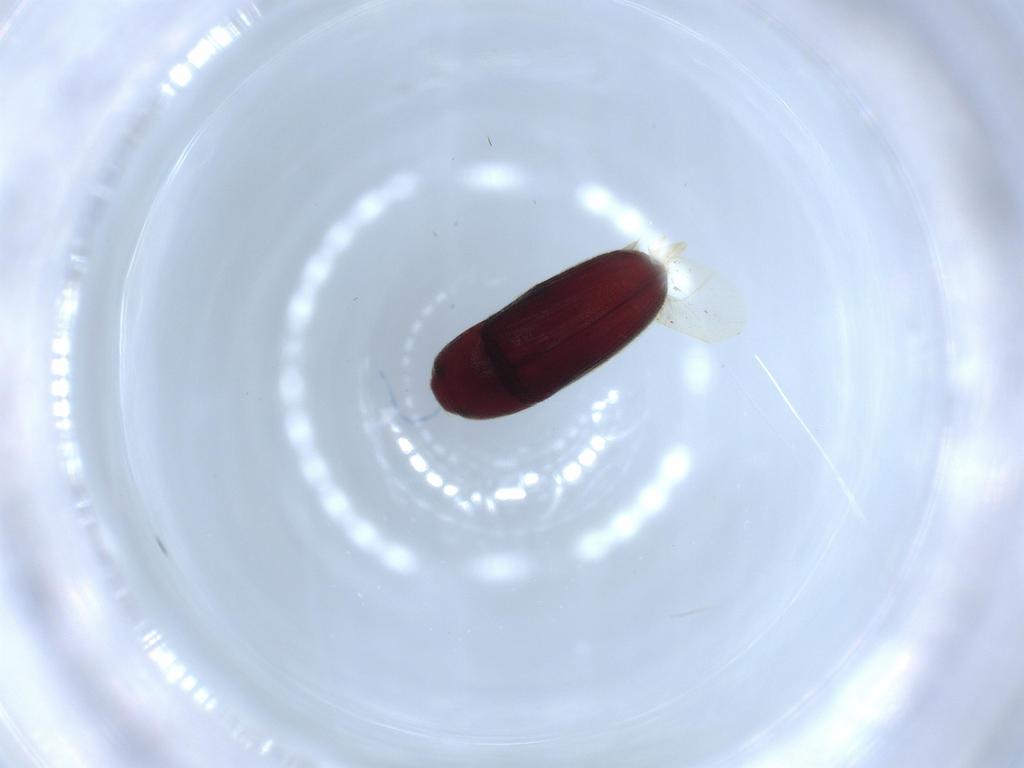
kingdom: Animalia
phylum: Arthropoda
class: Insecta
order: Coleoptera
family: Throscidae
